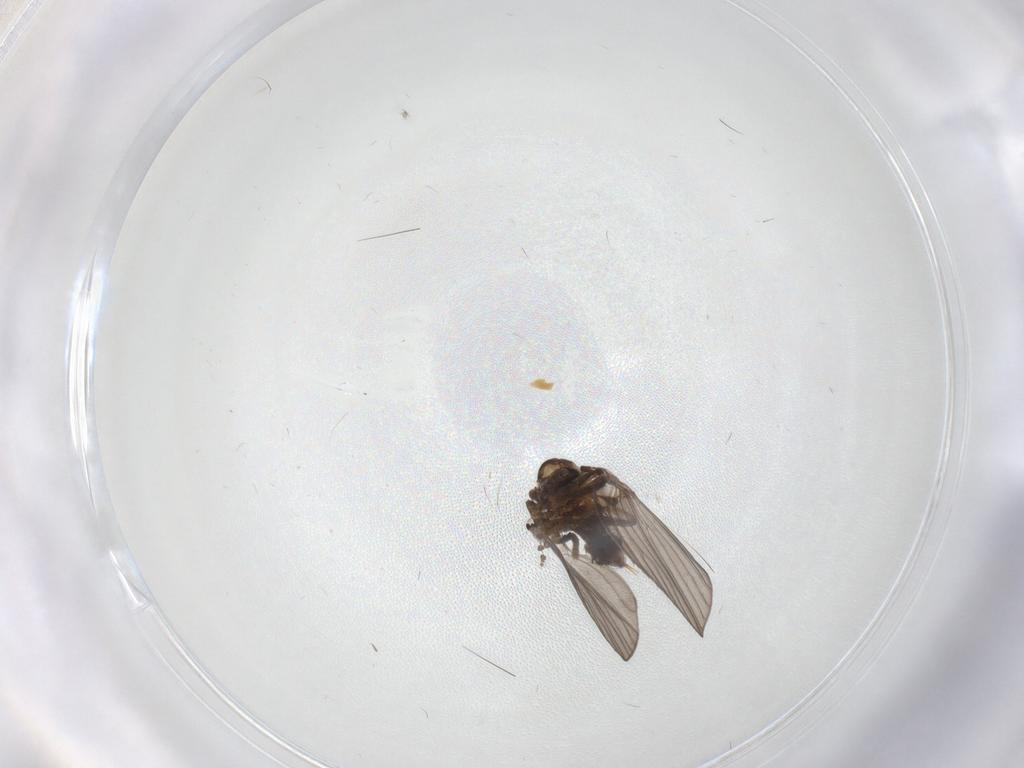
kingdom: Animalia
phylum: Arthropoda
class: Insecta
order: Diptera
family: Psychodidae
